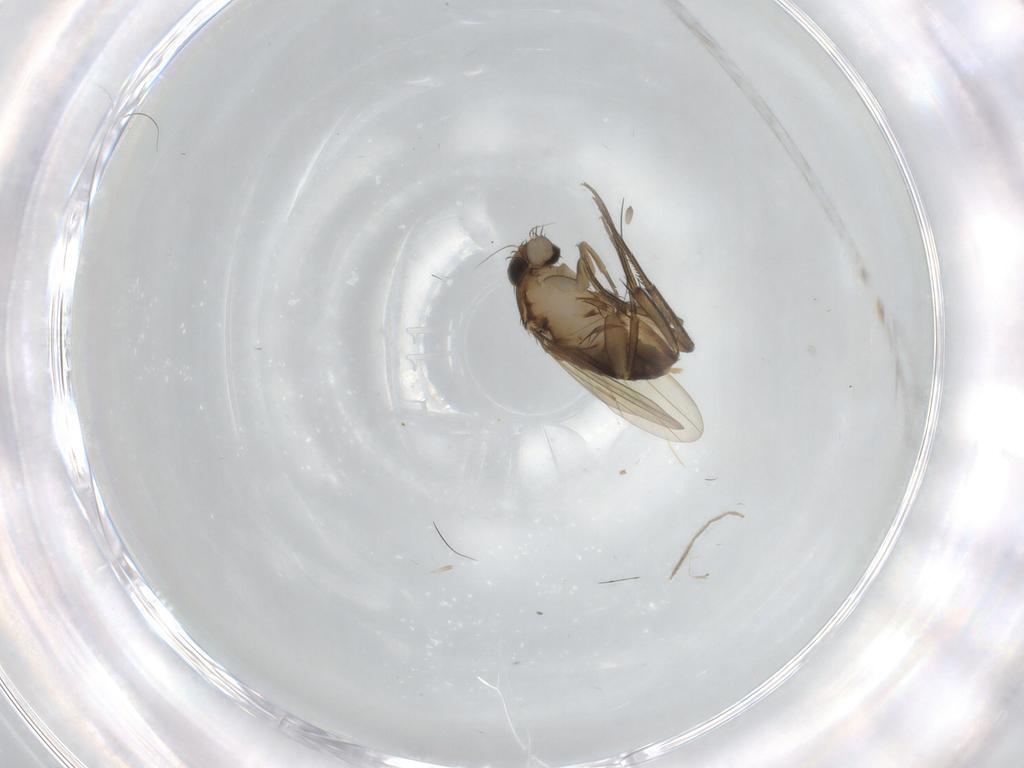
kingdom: Animalia
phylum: Arthropoda
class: Insecta
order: Diptera
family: Phoridae
